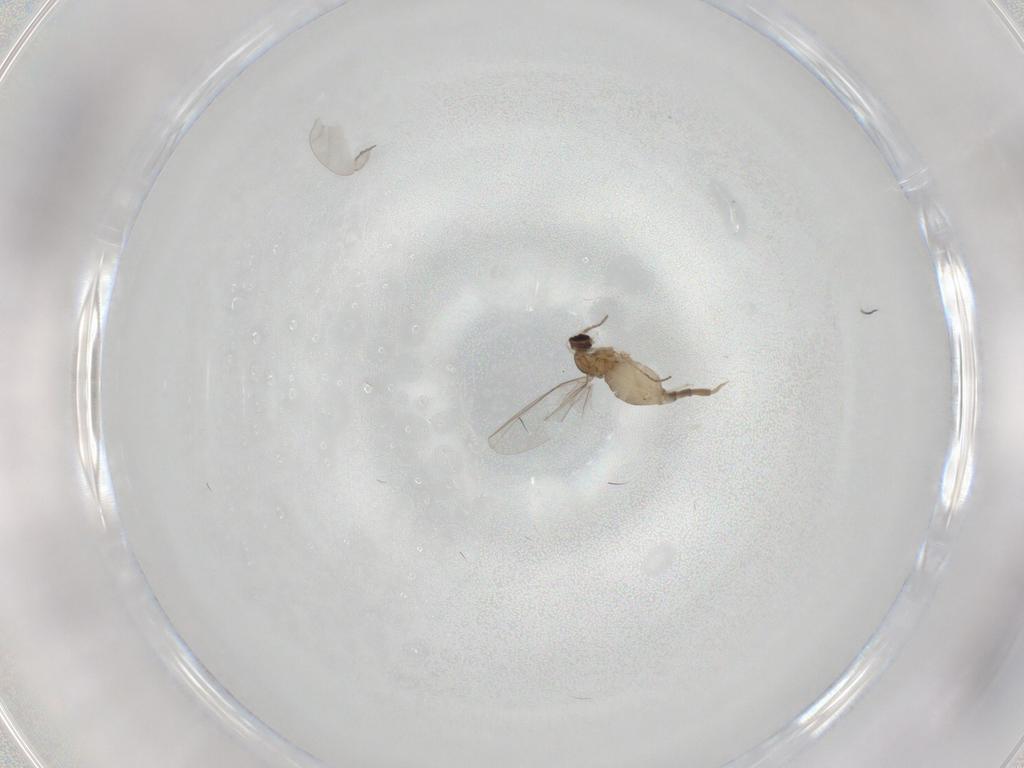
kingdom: Animalia
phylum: Arthropoda
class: Insecta
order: Diptera
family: Cecidomyiidae
